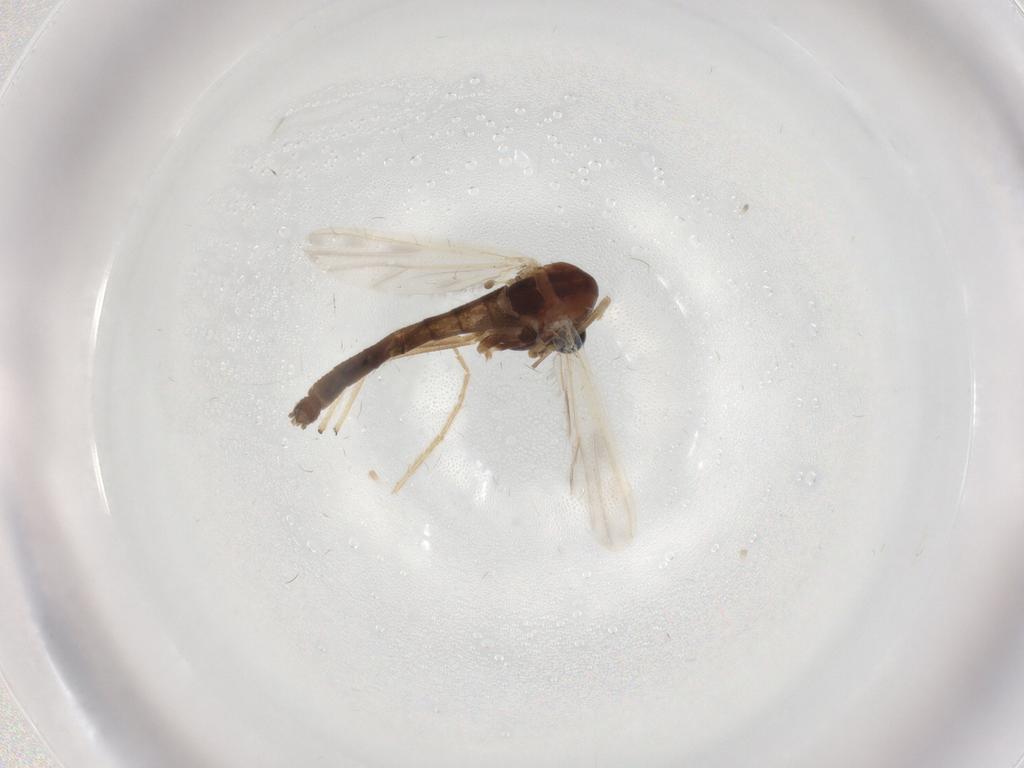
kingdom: Animalia
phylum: Arthropoda
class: Insecta
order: Diptera
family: Chironomidae
